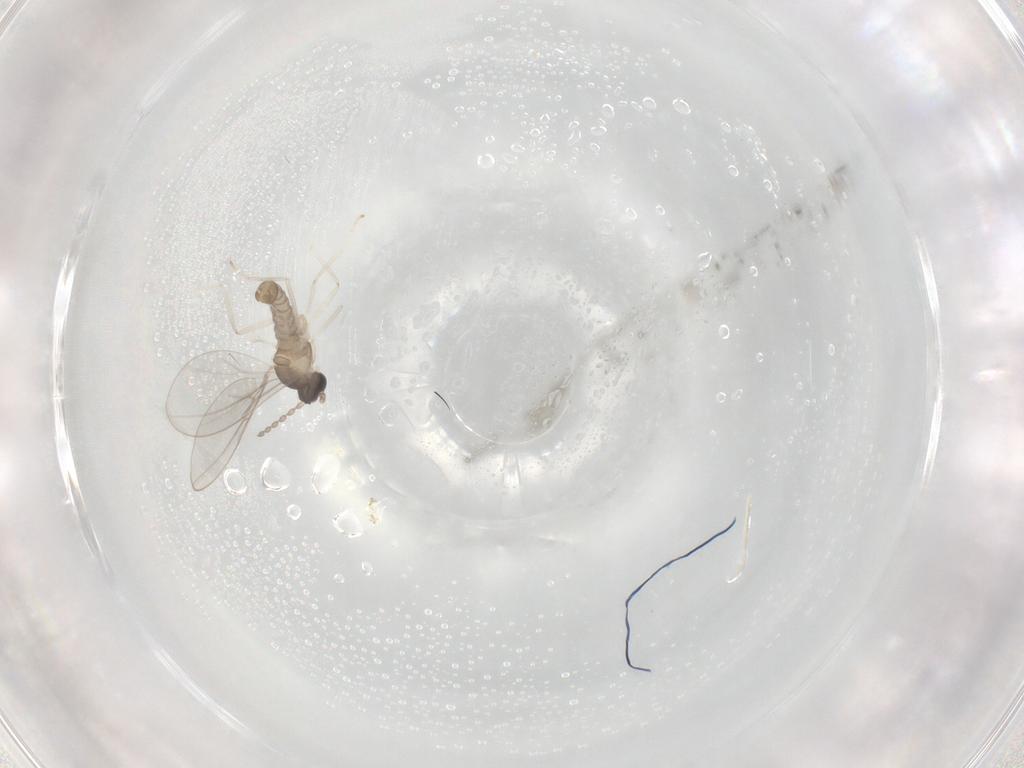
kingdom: Animalia
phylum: Arthropoda
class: Insecta
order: Diptera
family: Cecidomyiidae
